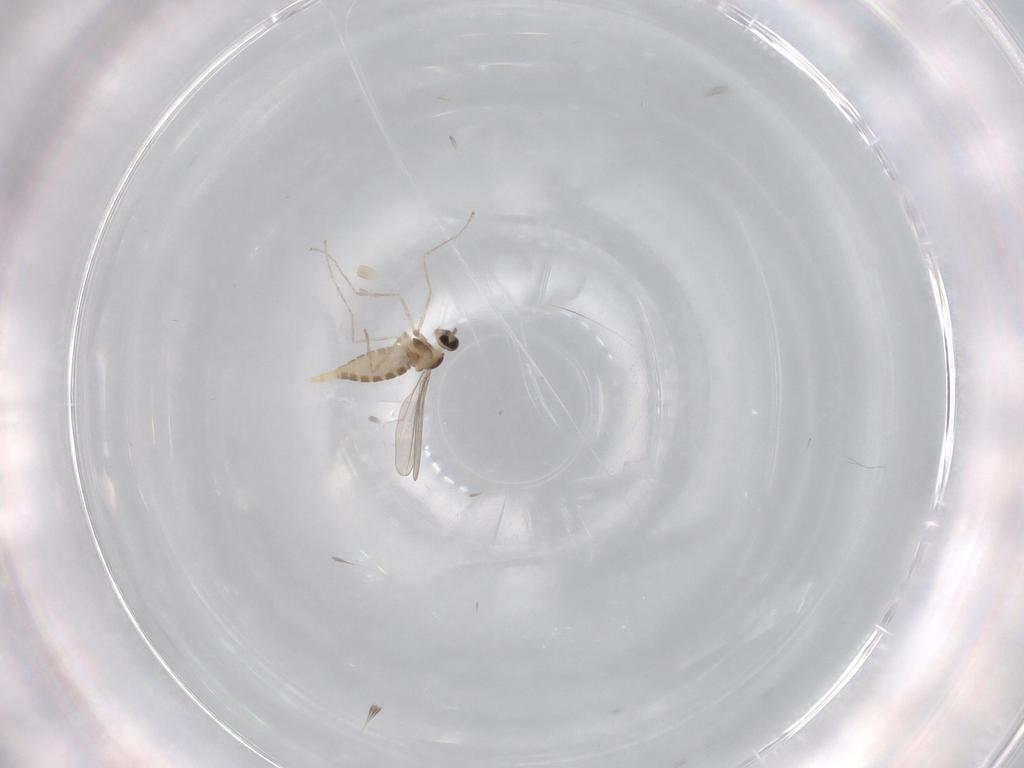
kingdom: Animalia
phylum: Arthropoda
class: Insecta
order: Diptera
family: Cecidomyiidae
